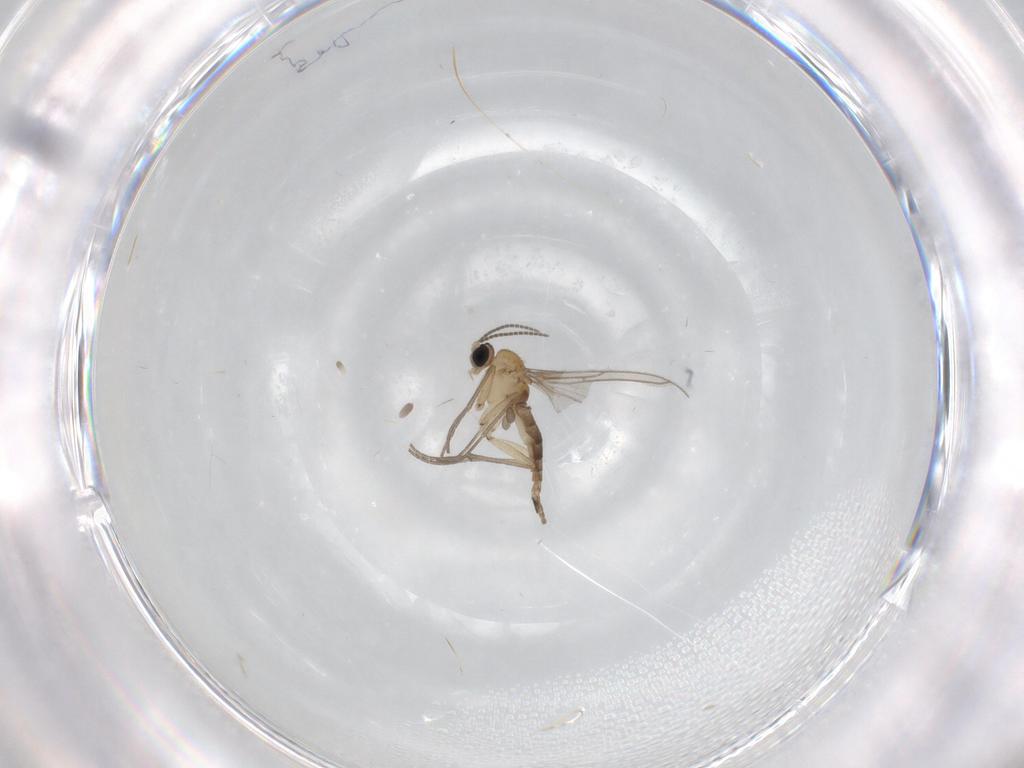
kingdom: Animalia
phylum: Arthropoda
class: Insecta
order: Diptera
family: Sciaridae
